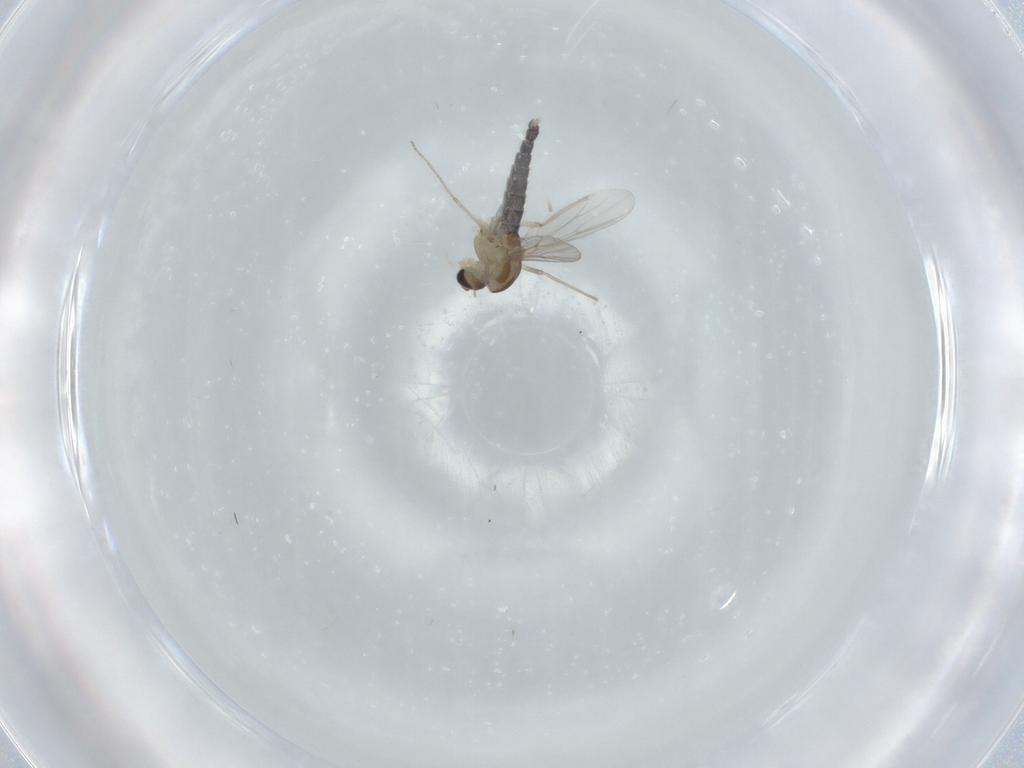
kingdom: Animalia
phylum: Arthropoda
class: Insecta
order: Diptera
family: Chironomidae
